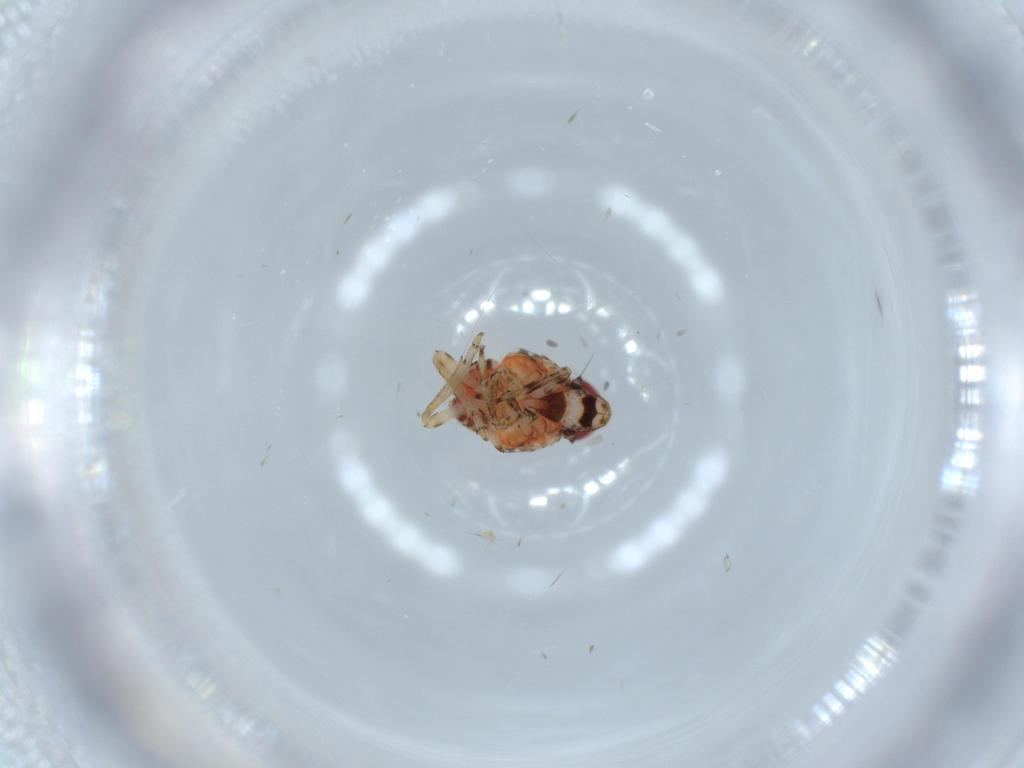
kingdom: Animalia
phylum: Arthropoda
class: Insecta
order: Hemiptera
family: Issidae
